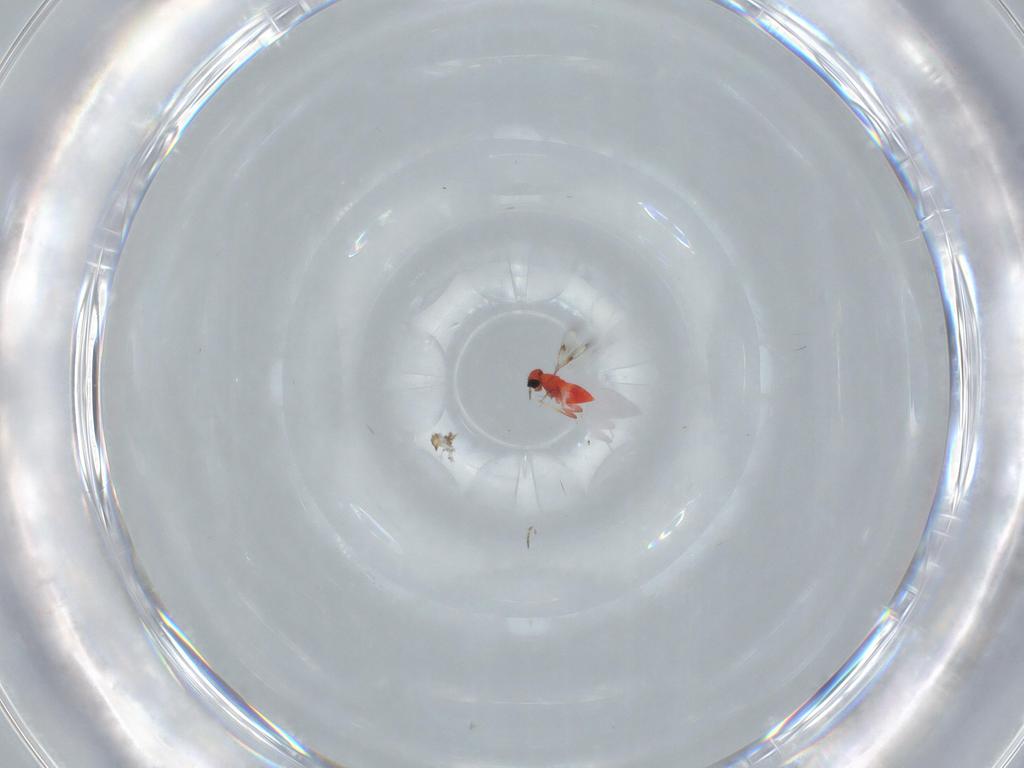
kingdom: Animalia
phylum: Arthropoda
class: Insecta
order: Hymenoptera
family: Trichogrammatidae
